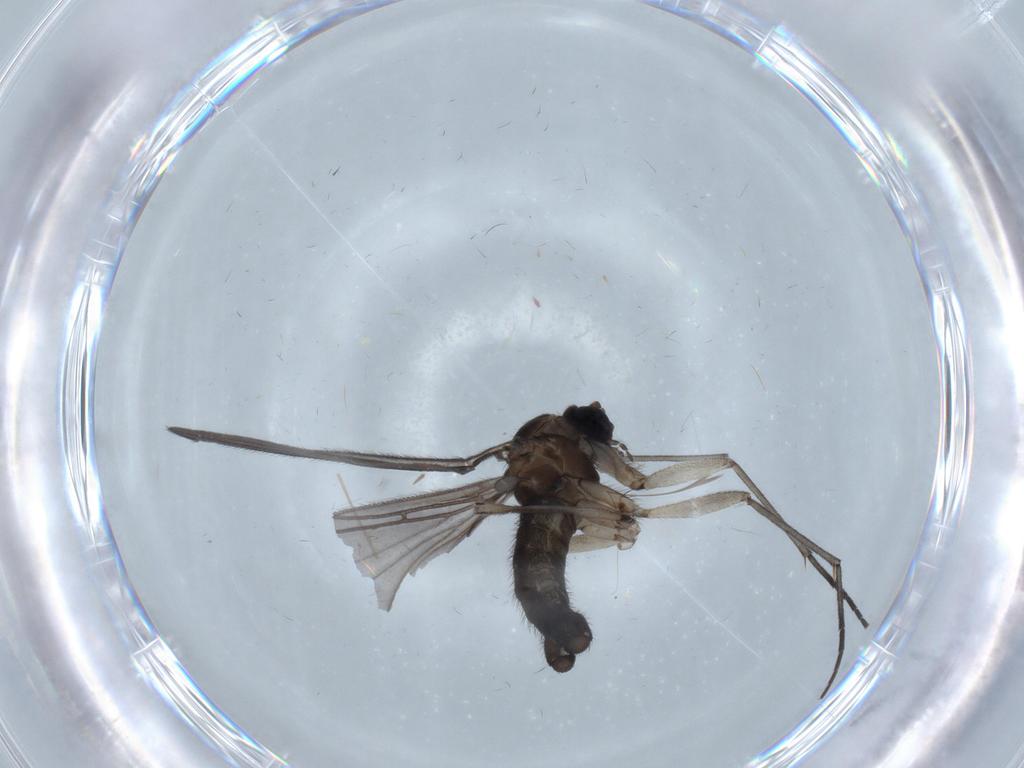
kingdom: Animalia
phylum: Arthropoda
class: Insecta
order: Diptera
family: Sciaridae
